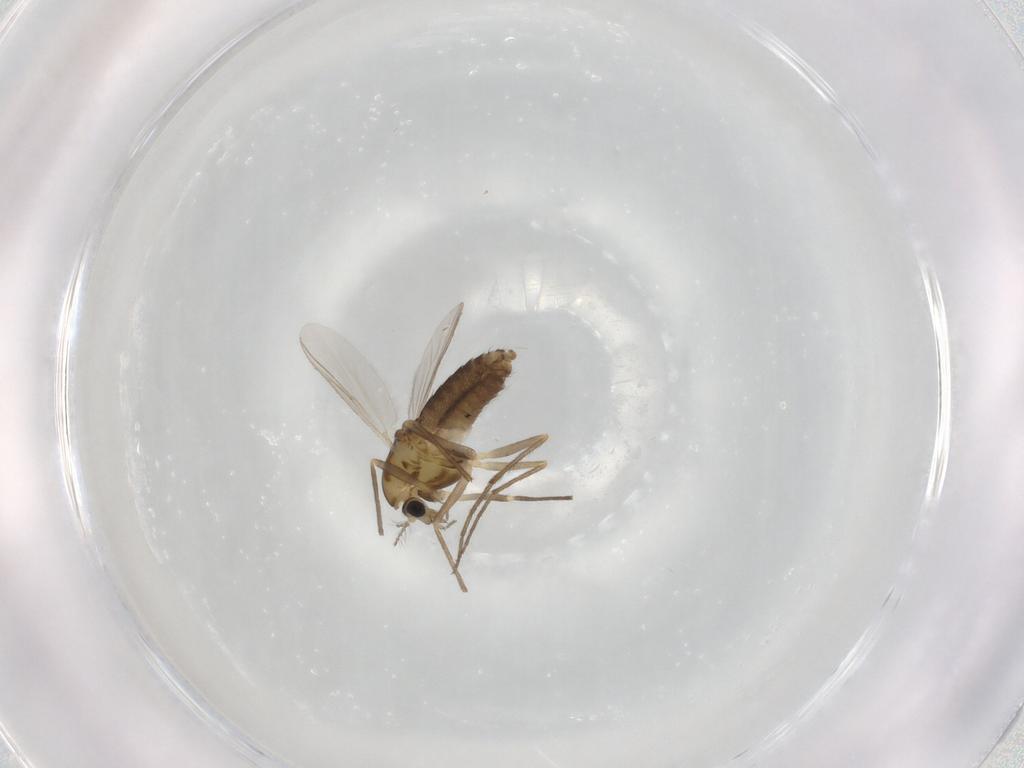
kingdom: Animalia
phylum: Arthropoda
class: Insecta
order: Diptera
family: Chironomidae
